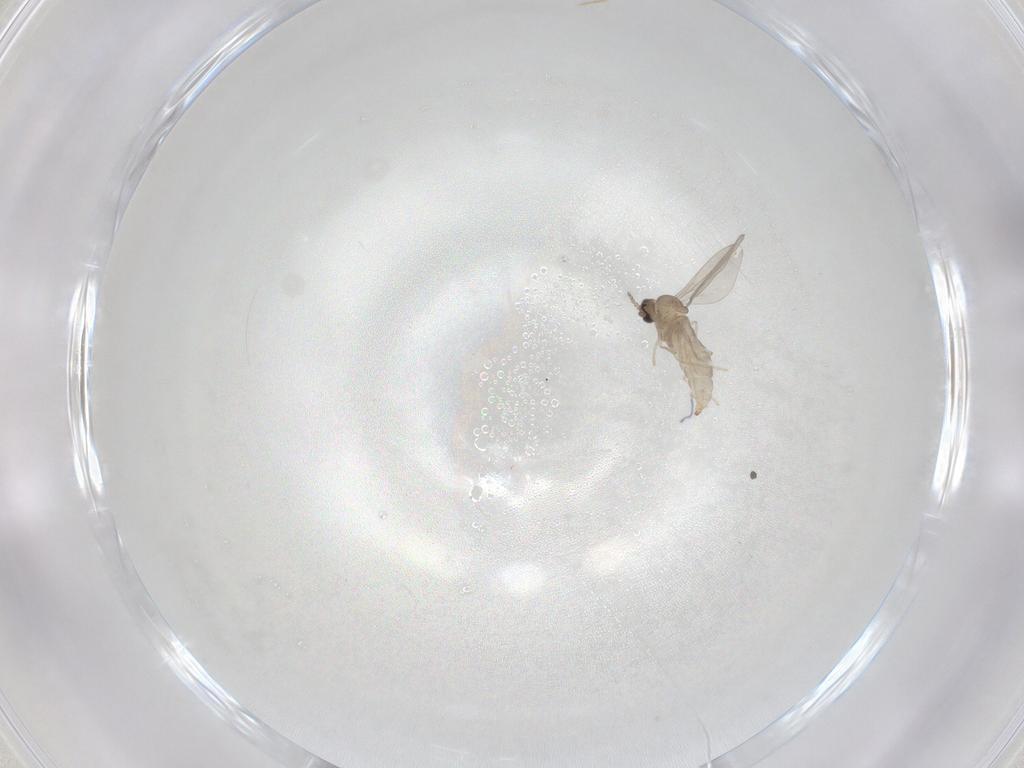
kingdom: Animalia
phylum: Arthropoda
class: Insecta
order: Diptera
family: Cecidomyiidae
